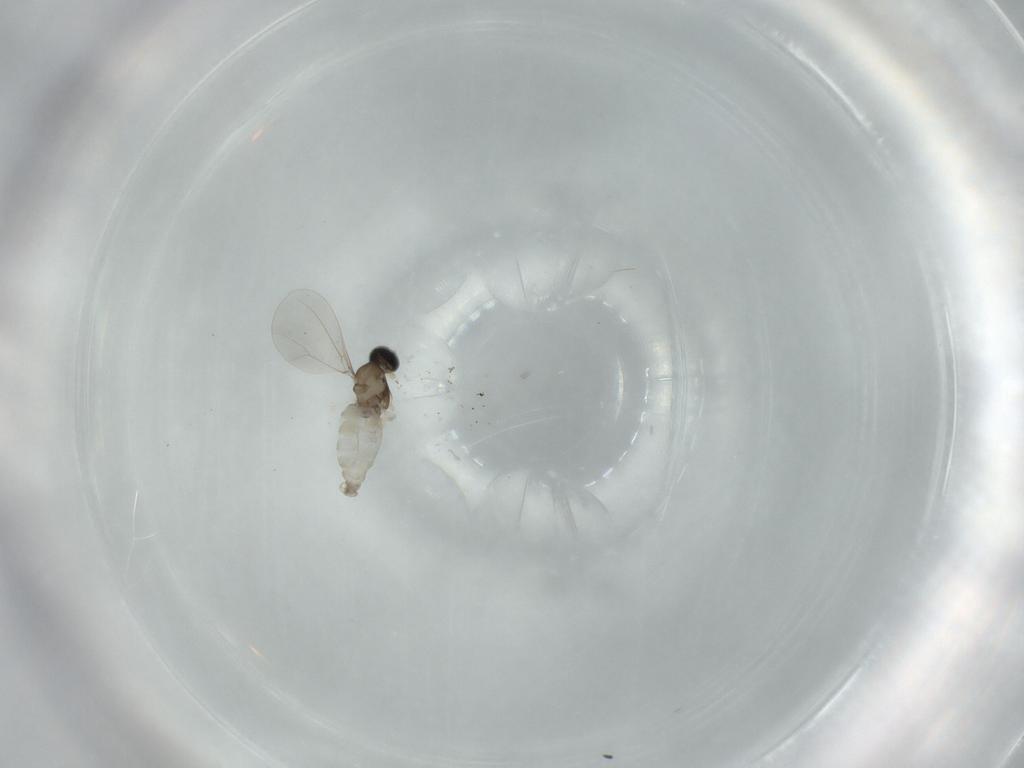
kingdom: Animalia
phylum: Arthropoda
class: Insecta
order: Diptera
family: Cecidomyiidae
